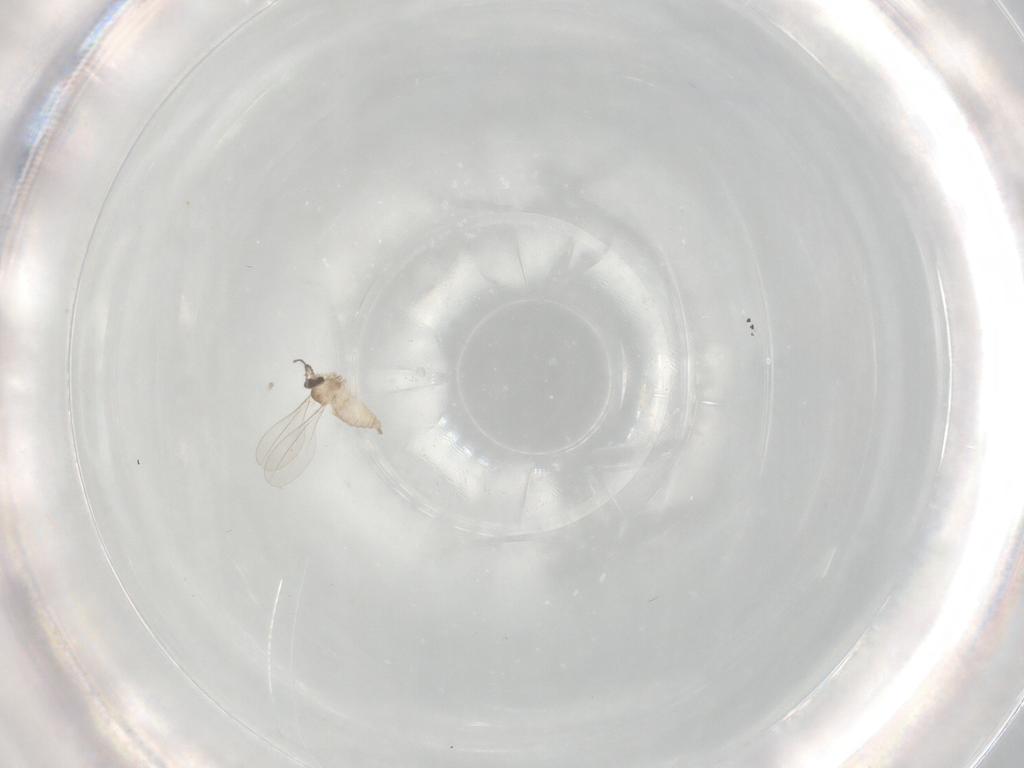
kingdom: Animalia
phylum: Arthropoda
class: Insecta
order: Diptera
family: Cecidomyiidae
